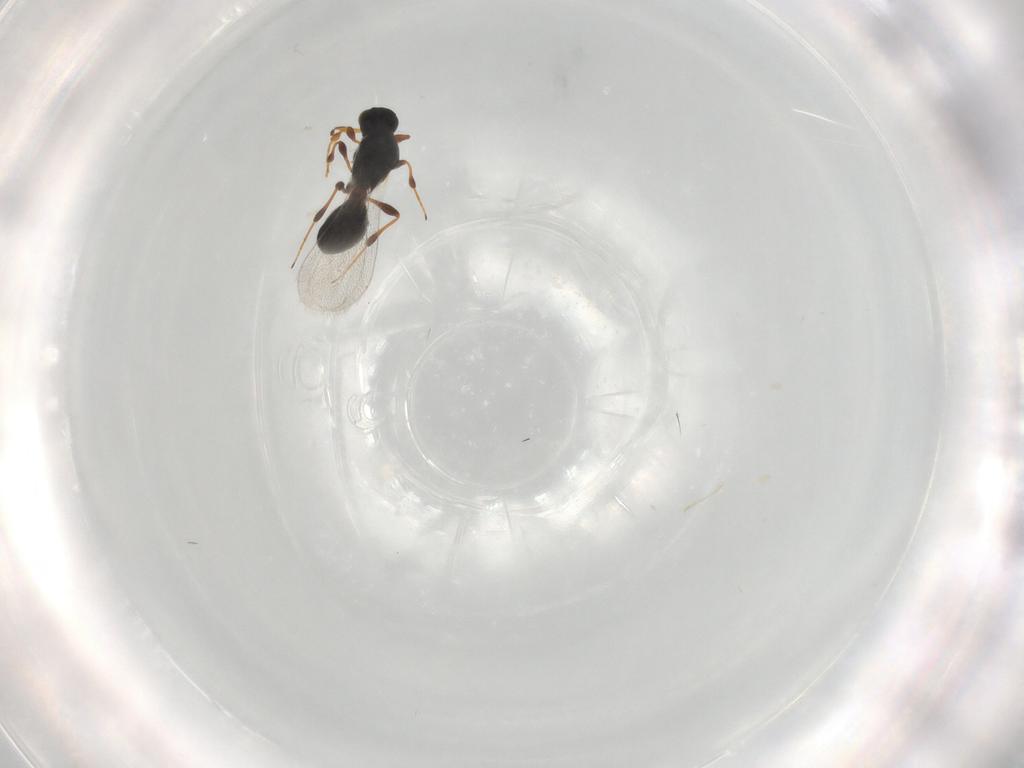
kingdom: Animalia
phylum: Arthropoda
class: Insecta
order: Hymenoptera
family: Platygastridae
